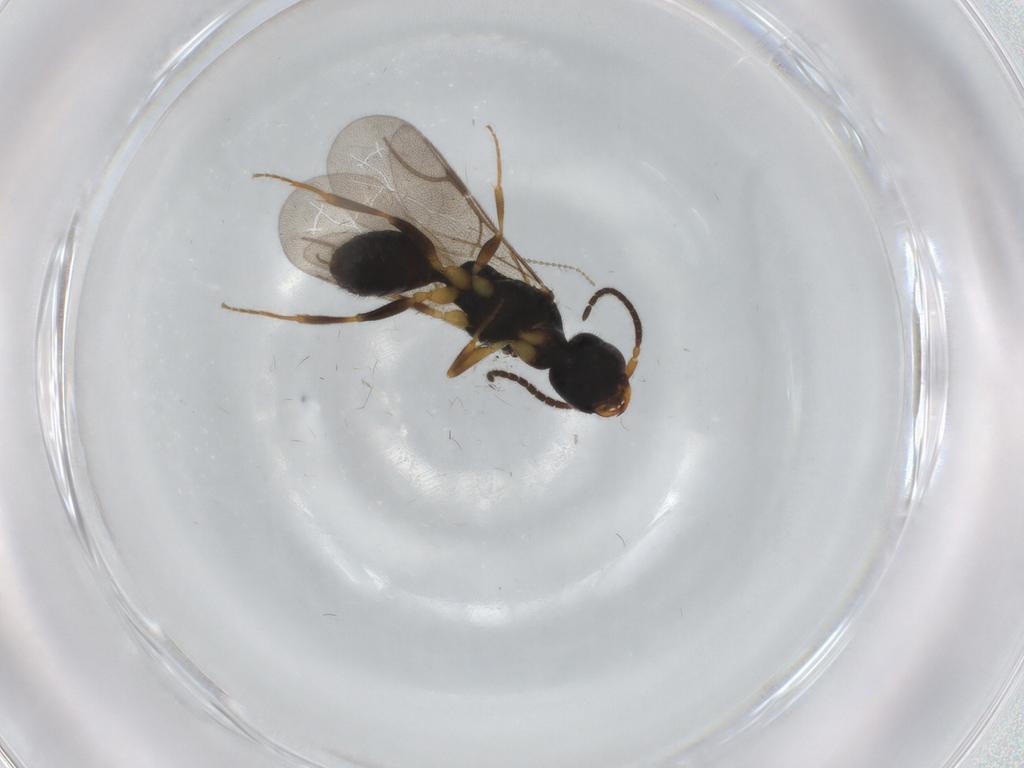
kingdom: Animalia
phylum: Arthropoda
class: Insecta
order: Hymenoptera
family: Bethylidae
